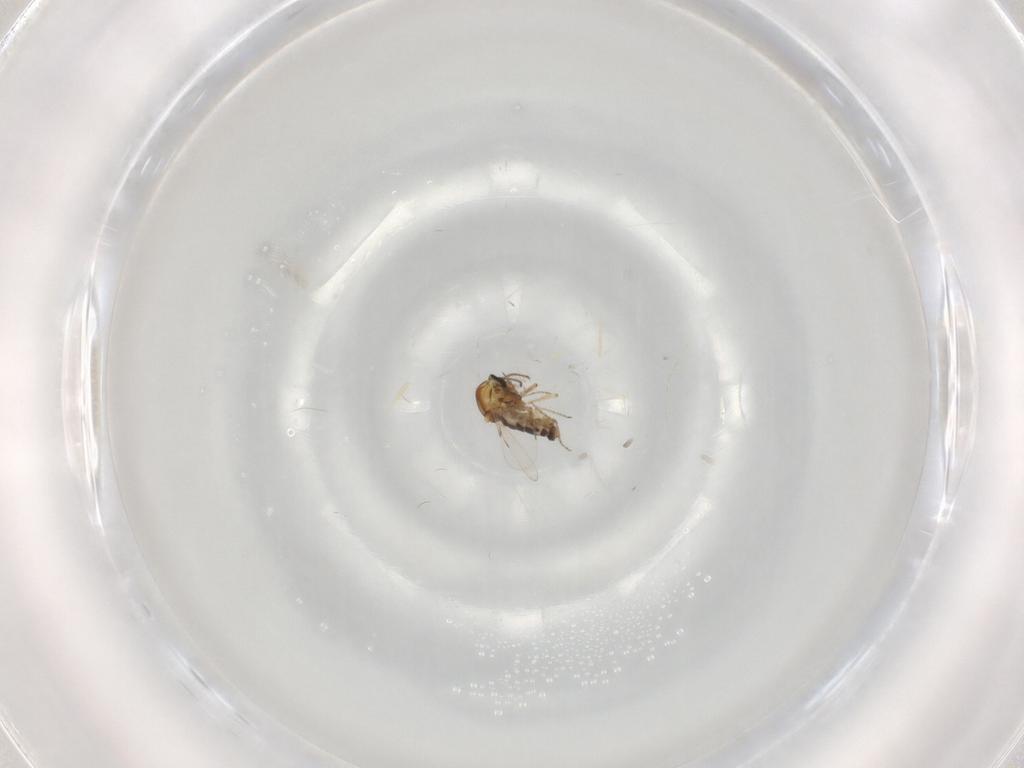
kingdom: Animalia
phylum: Arthropoda
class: Insecta
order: Diptera
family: Ceratopogonidae
